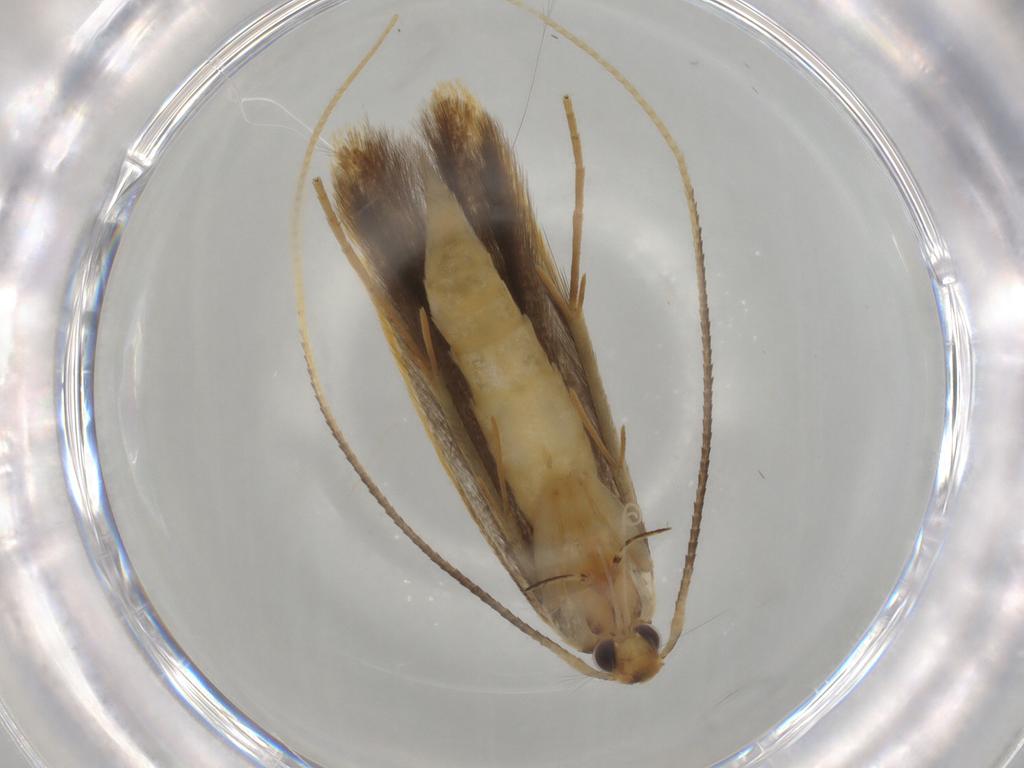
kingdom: Animalia
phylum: Arthropoda
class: Insecta
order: Lepidoptera
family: Pterolonchidae
